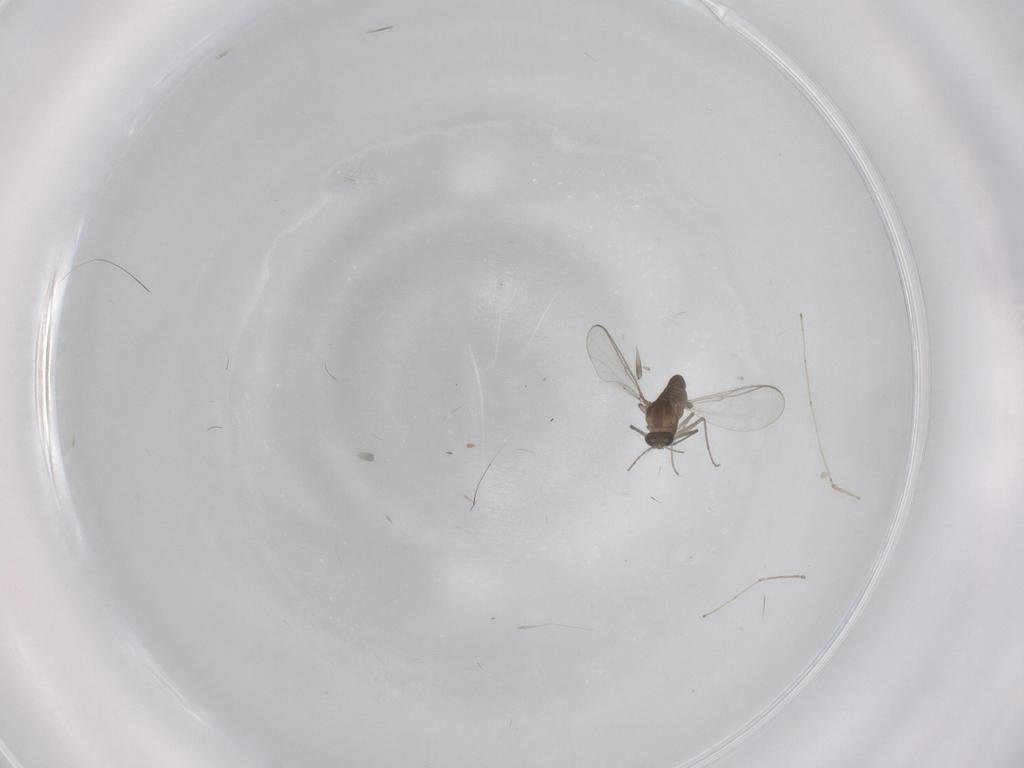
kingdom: Animalia
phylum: Arthropoda
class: Insecta
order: Diptera
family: Chironomidae
